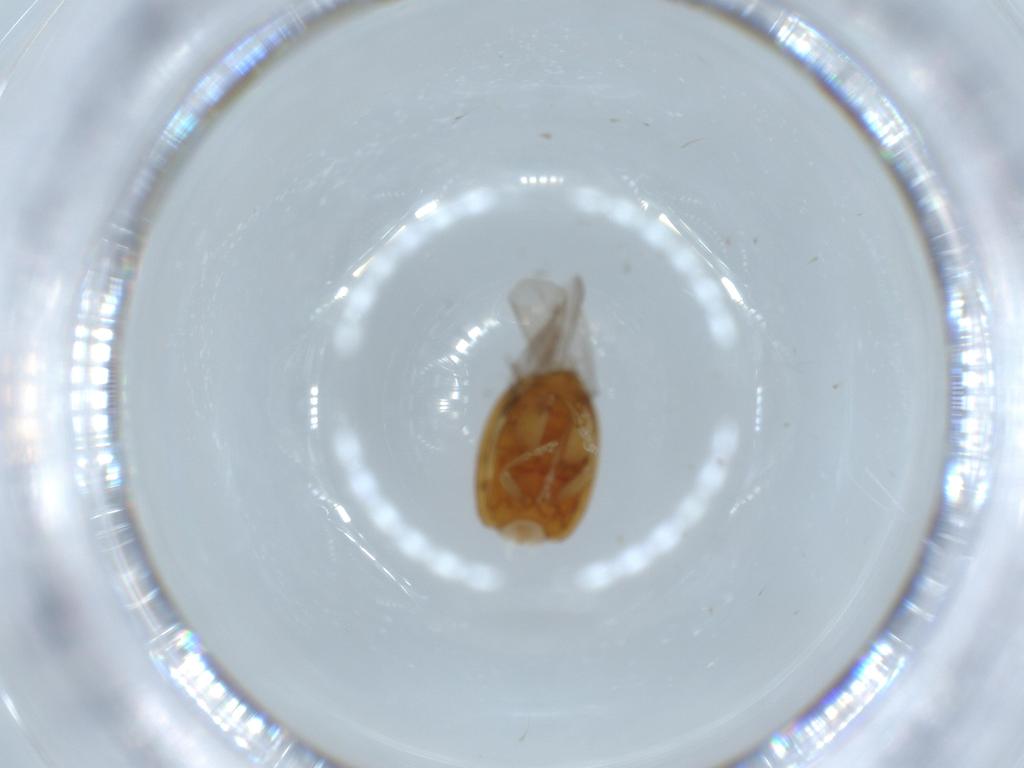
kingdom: Animalia
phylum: Arthropoda
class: Insecta
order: Coleoptera
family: Chrysomelidae
